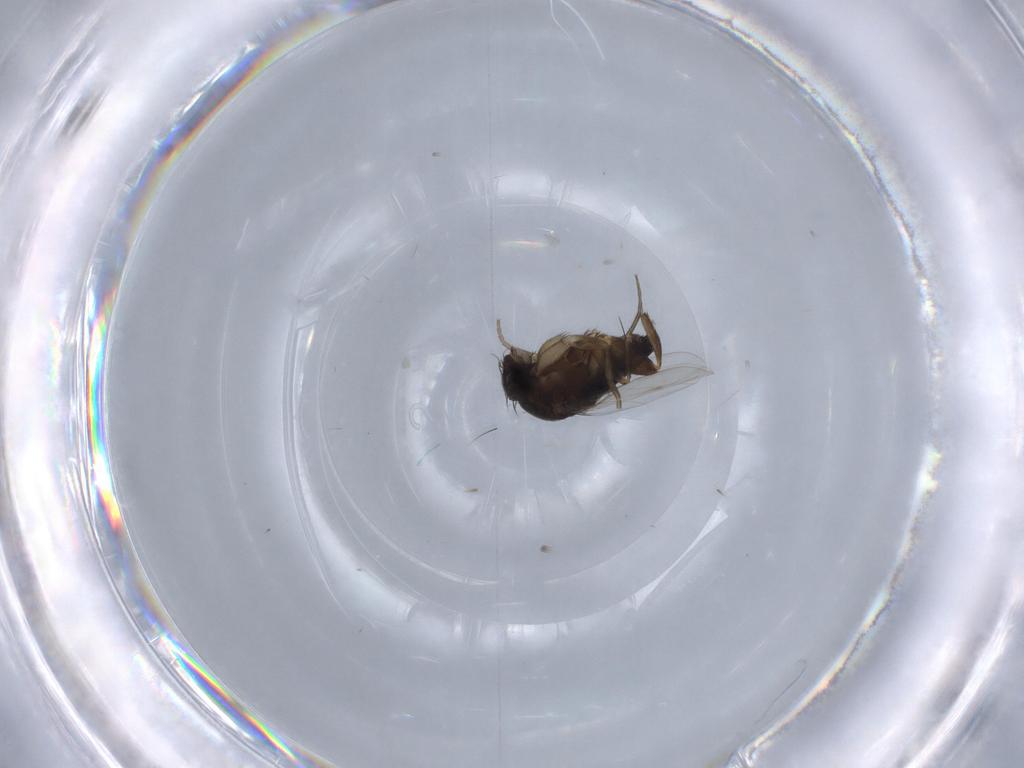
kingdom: Animalia
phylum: Arthropoda
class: Insecta
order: Diptera
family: Phoridae
